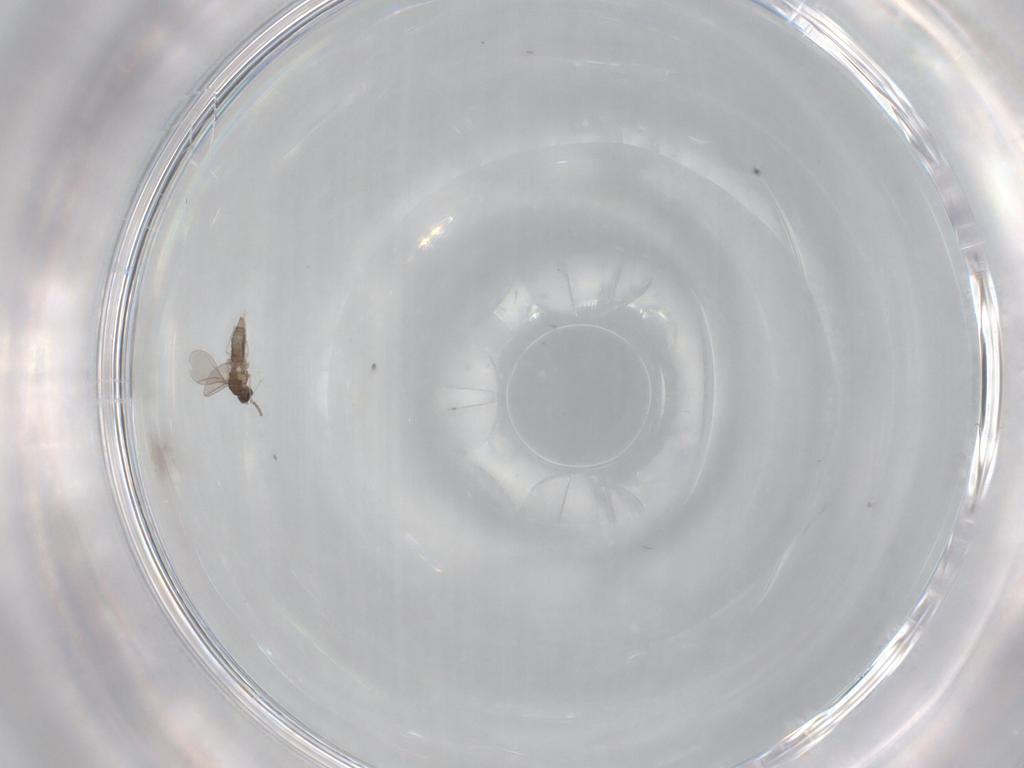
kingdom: Animalia
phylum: Arthropoda
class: Insecta
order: Diptera
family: Cecidomyiidae
